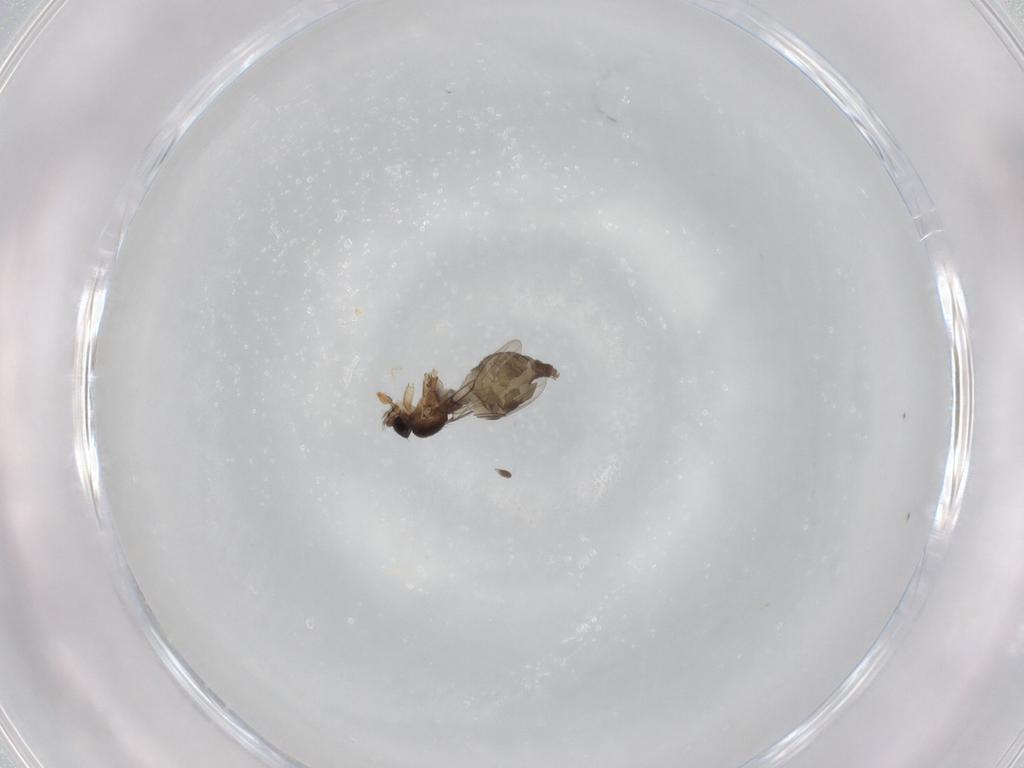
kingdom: Animalia
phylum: Arthropoda
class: Insecta
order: Diptera
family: Phoridae
